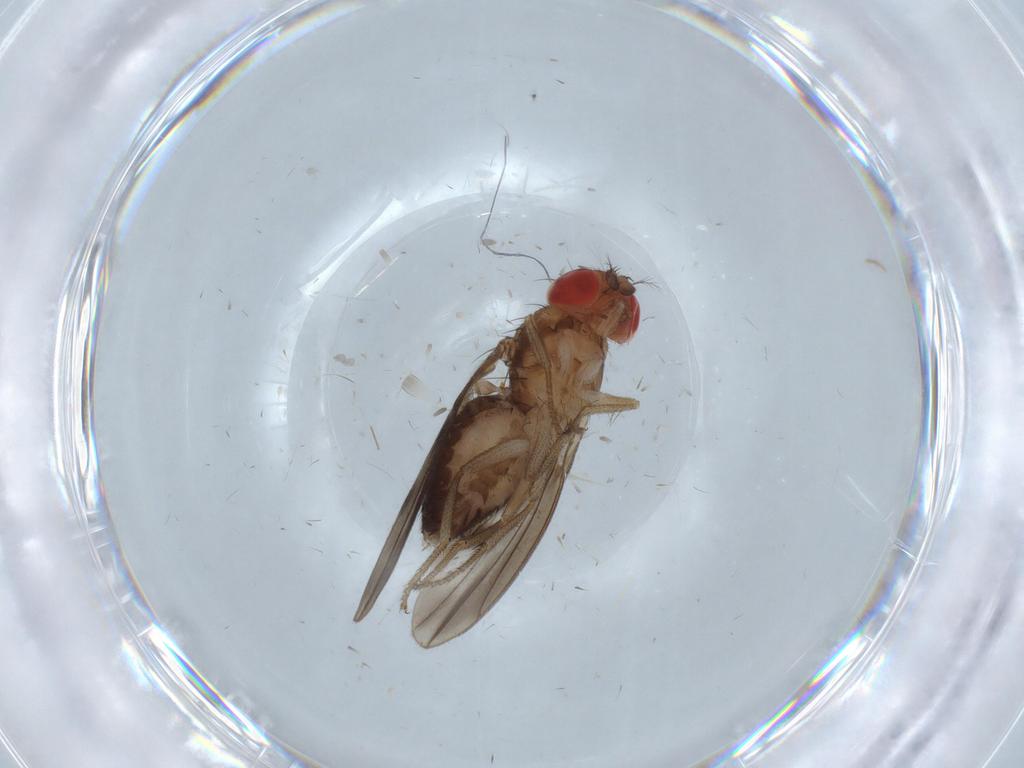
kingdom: Animalia
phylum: Arthropoda
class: Insecta
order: Diptera
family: Drosophilidae
